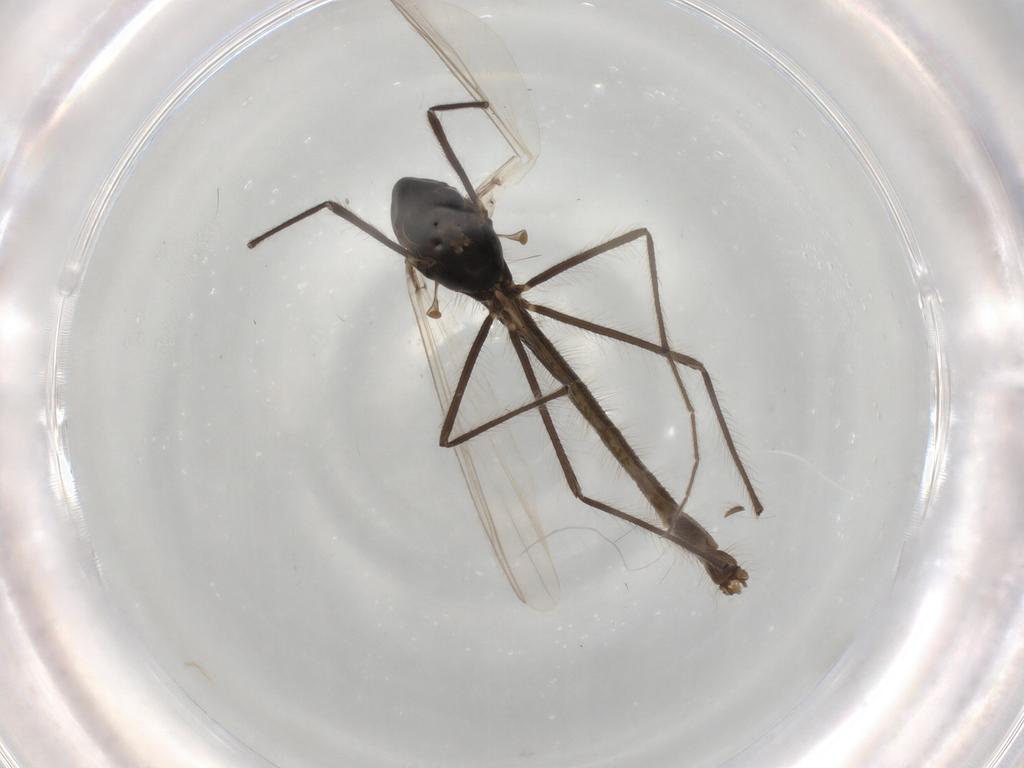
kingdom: Animalia
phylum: Arthropoda
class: Insecta
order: Diptera
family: Chironomidae
